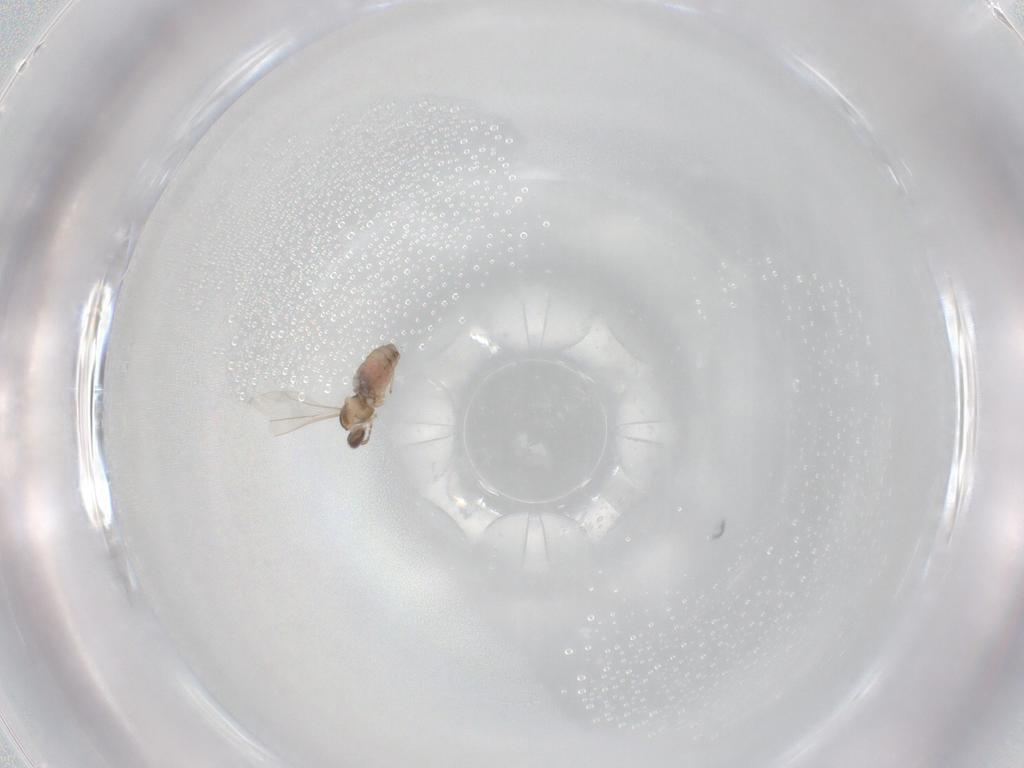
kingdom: Animalia
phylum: Arthropoda
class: Insecta
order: Diptera
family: Cecidomyiidae
